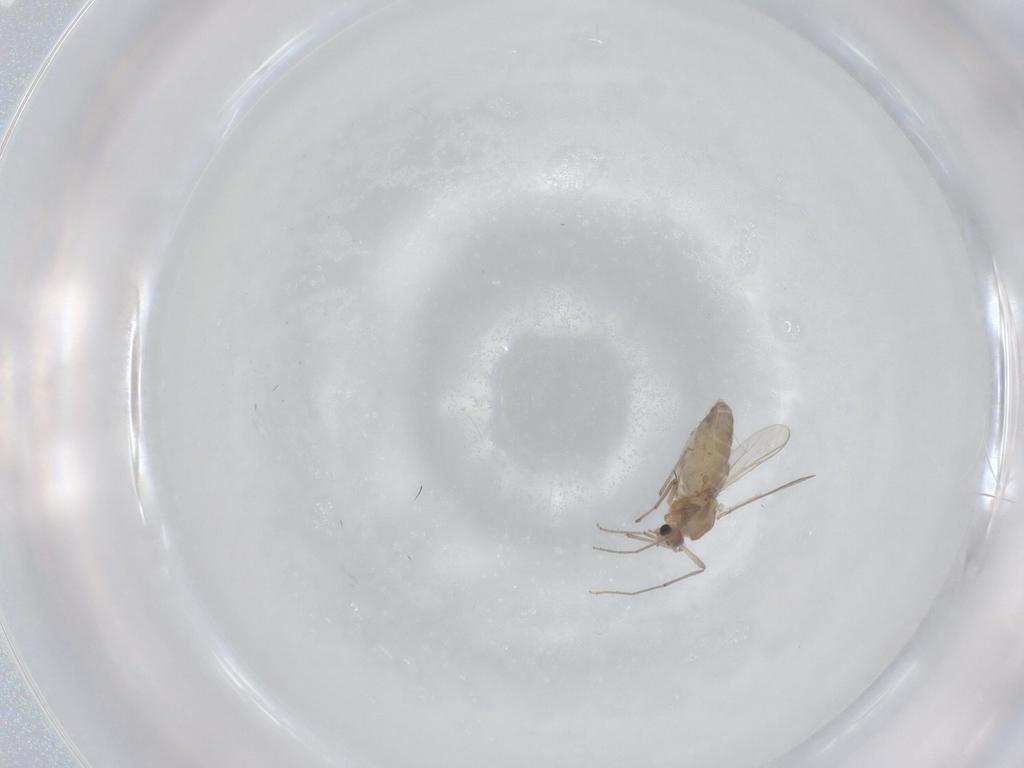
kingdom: Animalia
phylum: Arthropoda
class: Insecta
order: Diptera
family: Chironomidae
